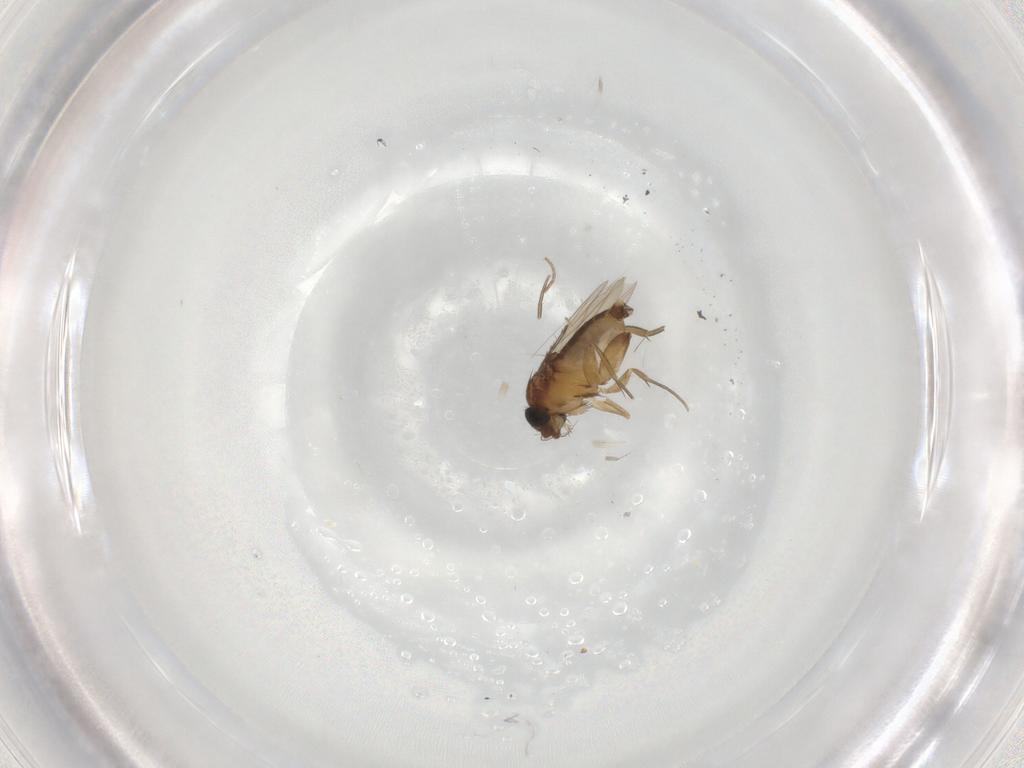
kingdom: Animalia
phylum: Arthropoda
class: Insecta
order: Diptera
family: Phoridae
